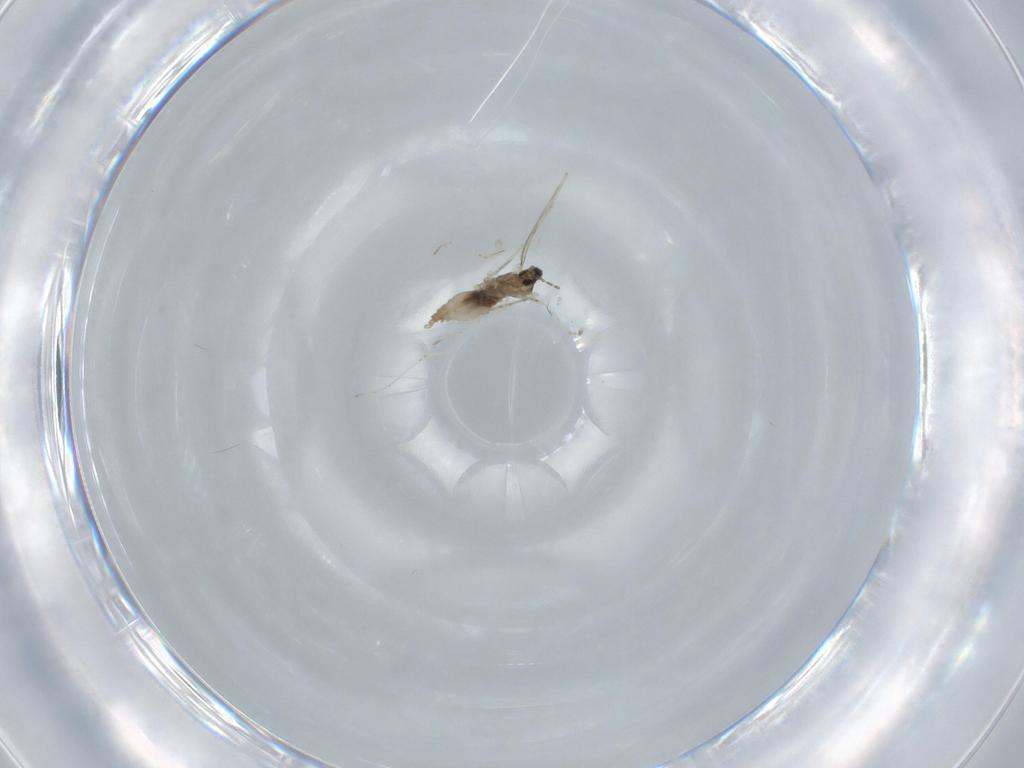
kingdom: Animalia
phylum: Arthropoda
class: Insecta
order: Diptera
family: Cecidomyiidae
